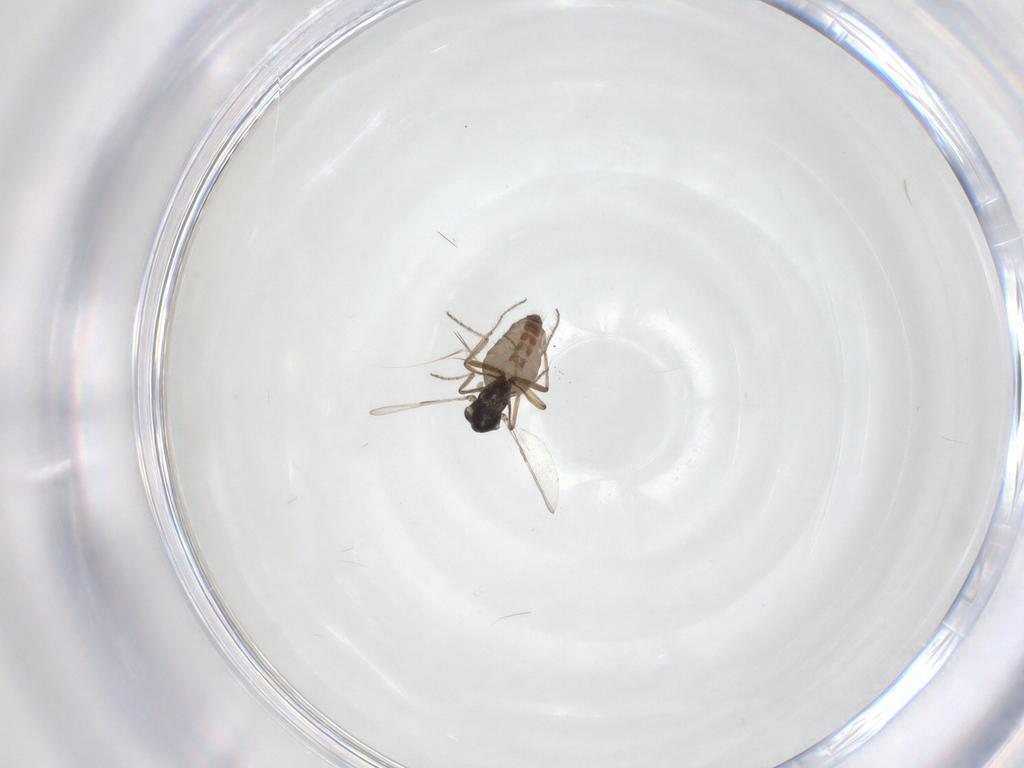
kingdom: Animalia
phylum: Arthropoda
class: Insecta
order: Diptera
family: Ceratopogonidae
